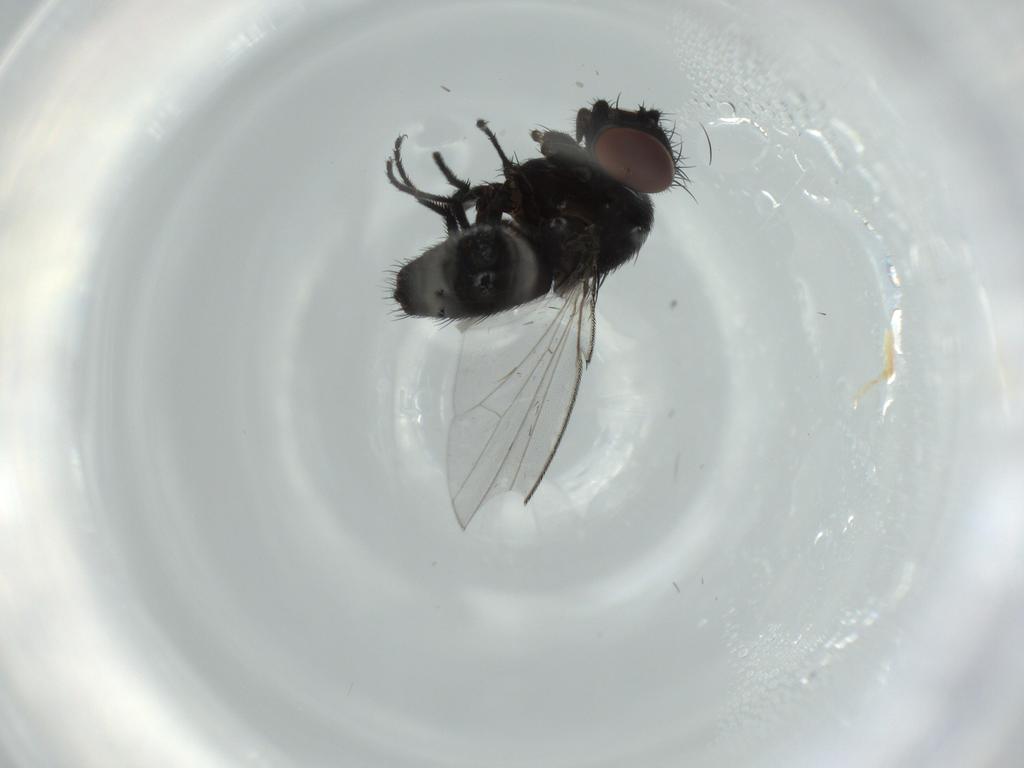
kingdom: Animalia
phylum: Arthropoda
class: Insecta
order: Diptera
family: Milichiidae
